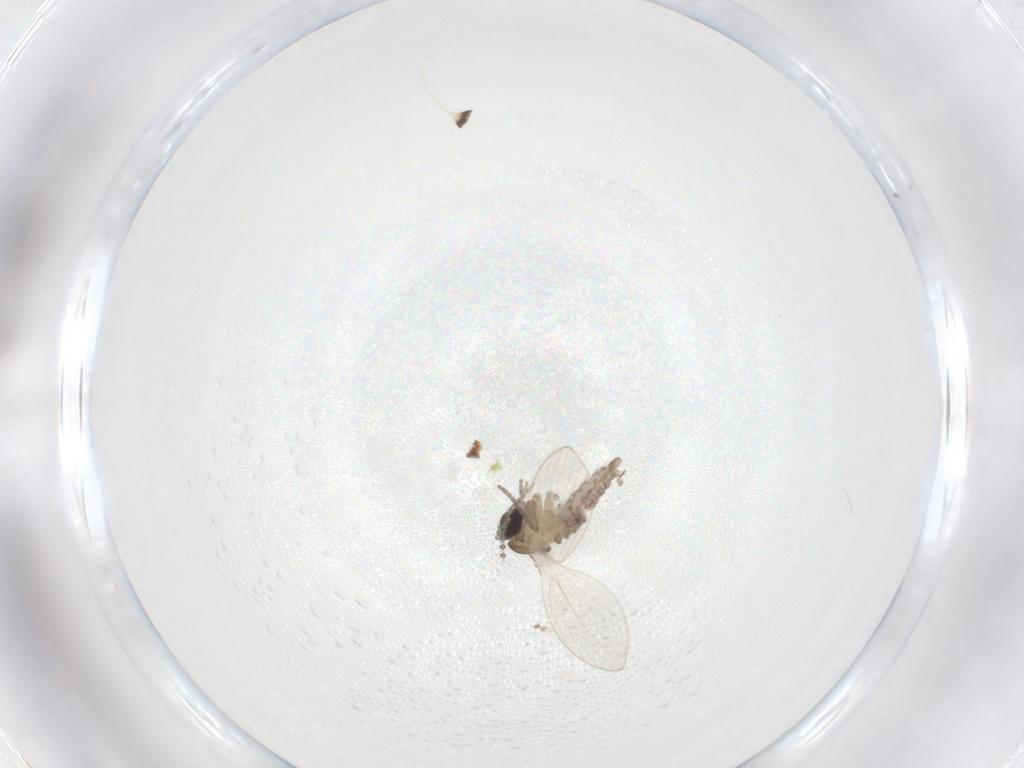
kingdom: Animalia
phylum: Arthropoda
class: Insecta
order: Diptera
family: Psychodidae
